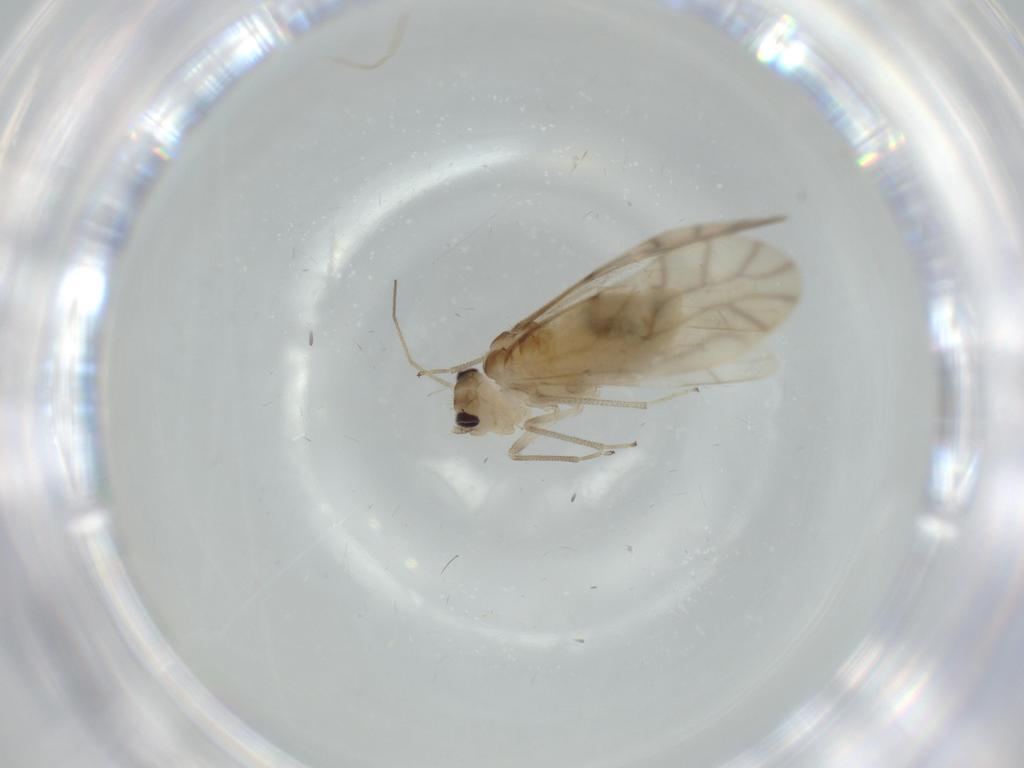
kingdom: Animalia
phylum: Arthropoda
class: Insecta
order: Psocodea
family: Caeciliusidae
